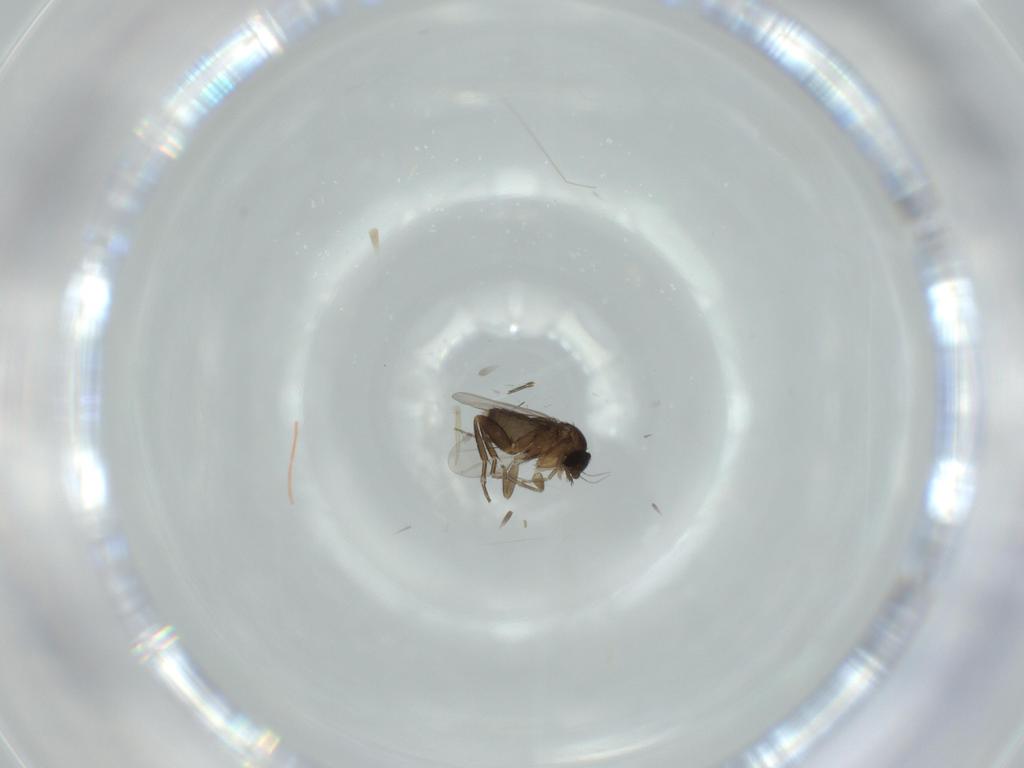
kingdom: Animalia
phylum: Arthropoda
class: Insecta
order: Diptera
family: Phoridae
